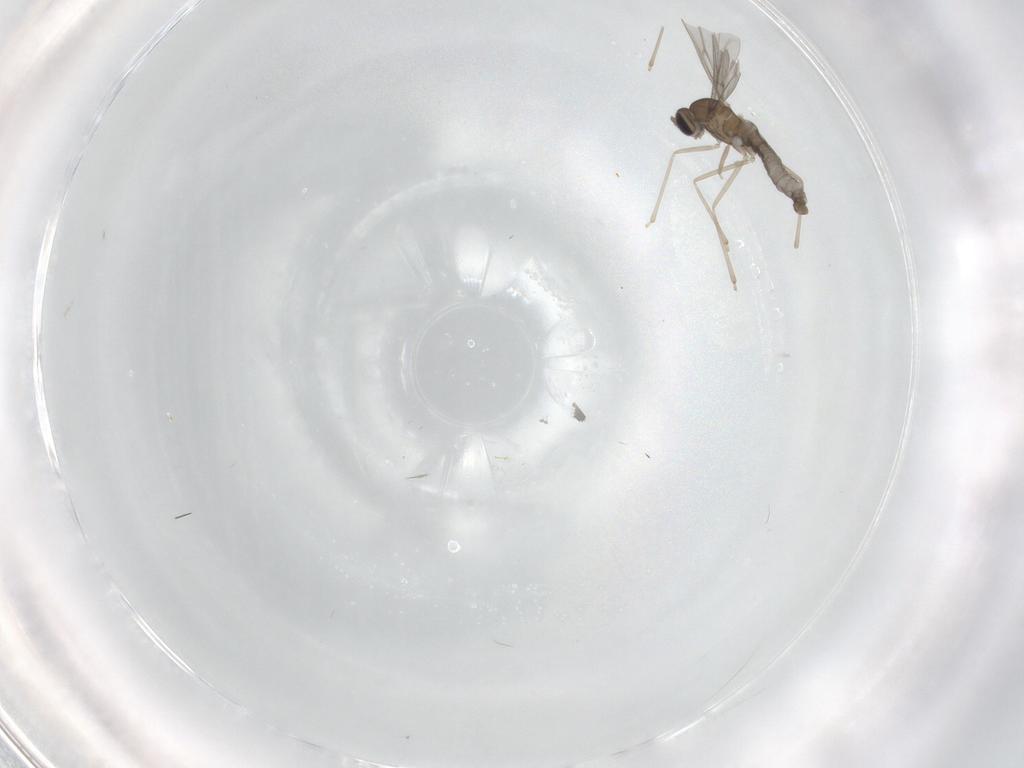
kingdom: Animalia
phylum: Arthropoda
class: Insecta
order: Diptera
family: Cecidomyiidae
